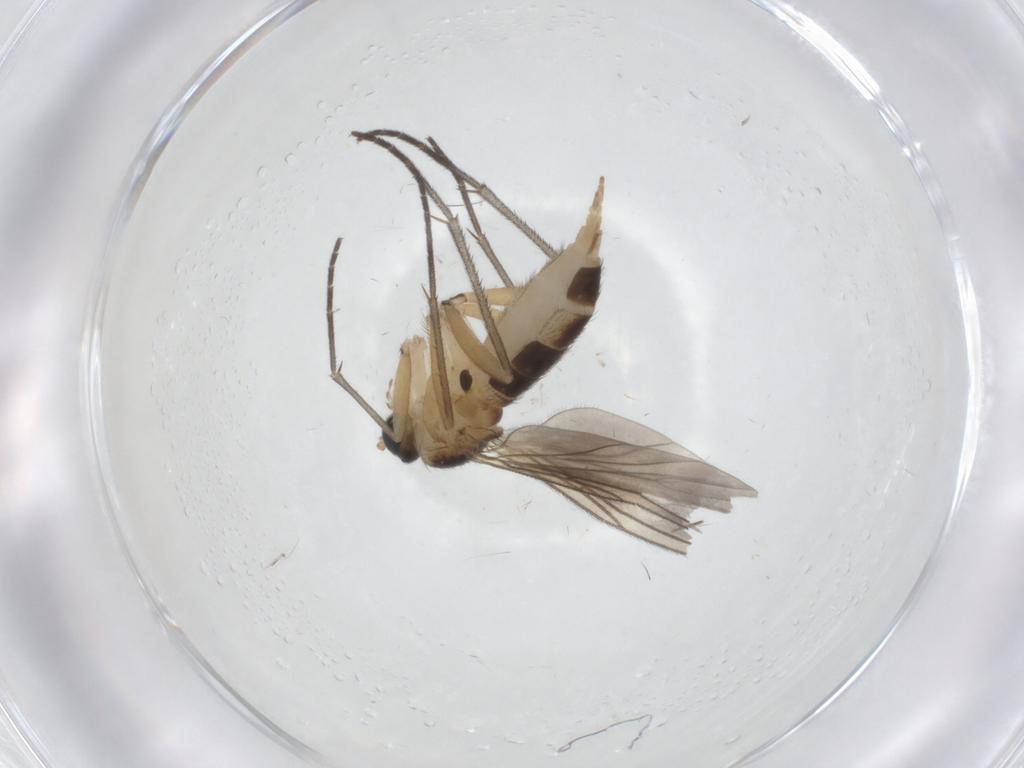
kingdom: Animalia
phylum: Arthropoda
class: Insecta
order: Diptera
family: Sciaridae
